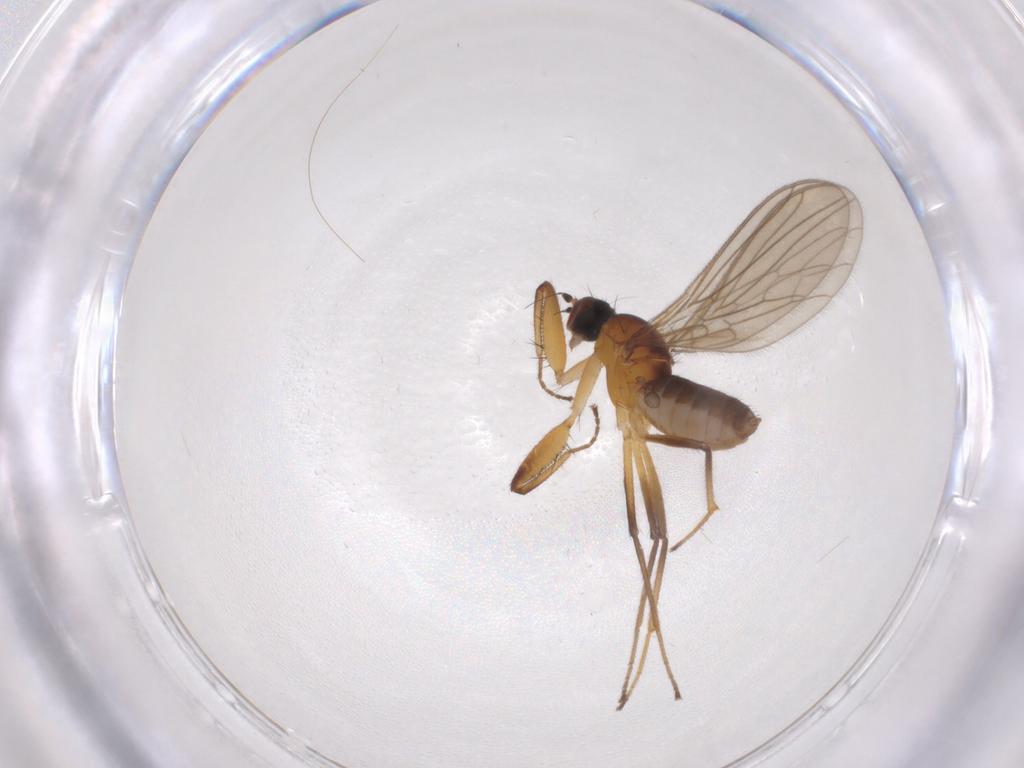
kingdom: Animalia
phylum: Arthropoda
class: Insecta
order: Diptera
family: Empididae
